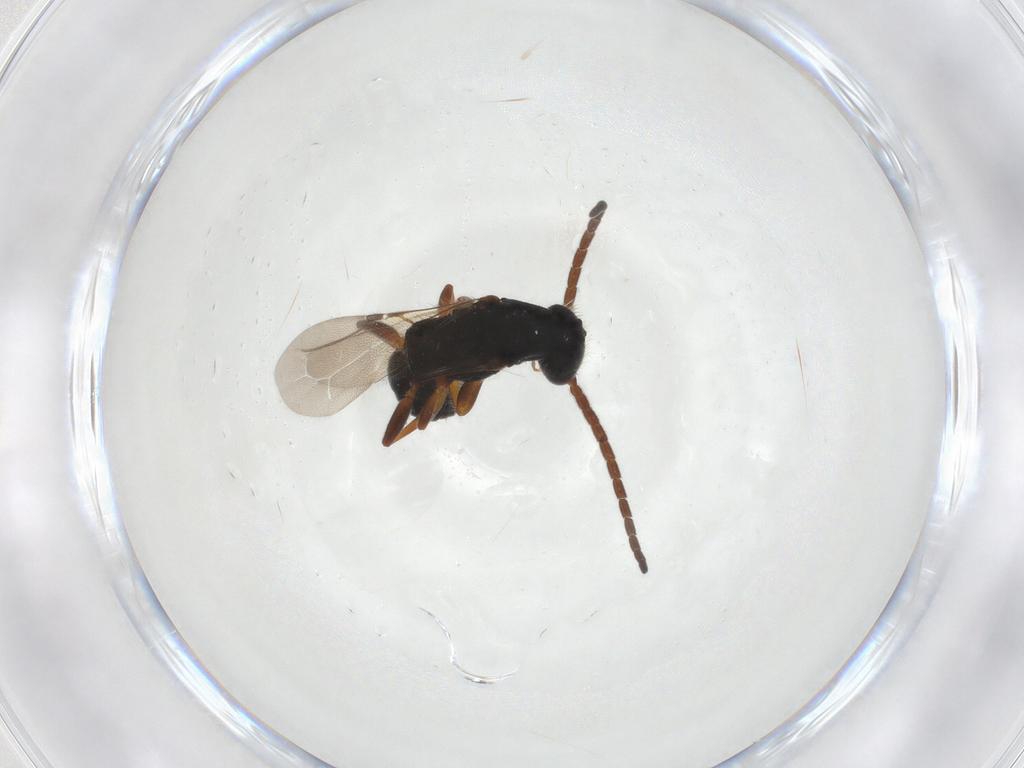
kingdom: Animalia
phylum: Arthropoda
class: Insecta
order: Hymenoptera
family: Bethylidae
